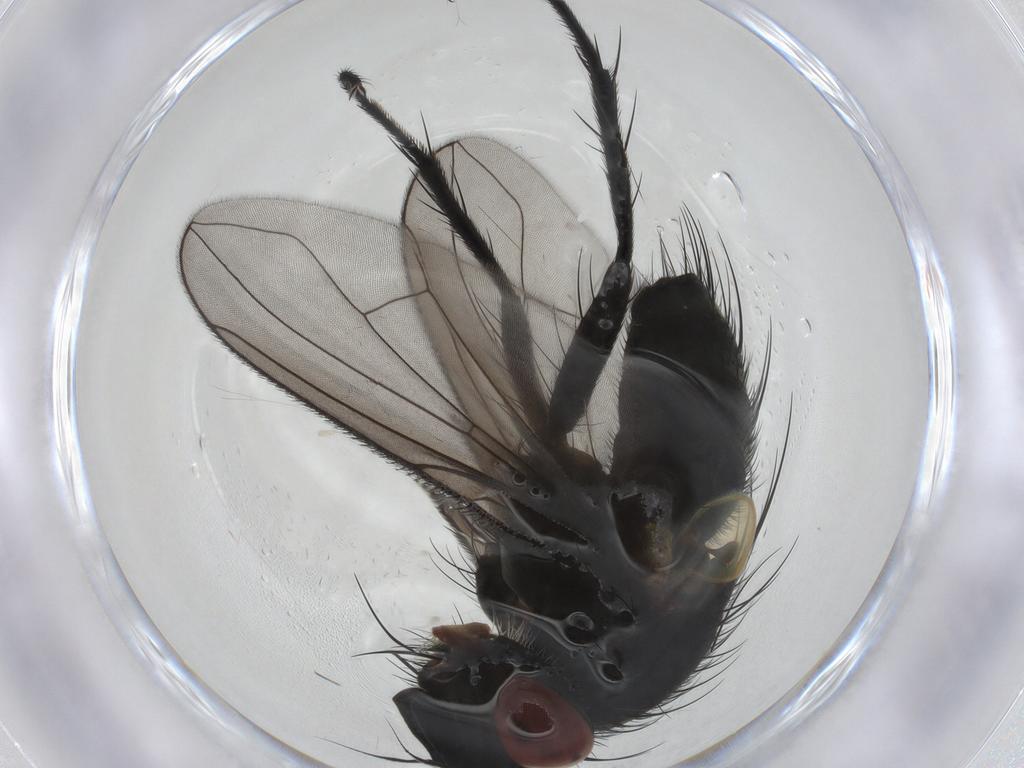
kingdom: Animalia
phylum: Arthropoda
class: Insecta
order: Diptera
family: Tachinidae
